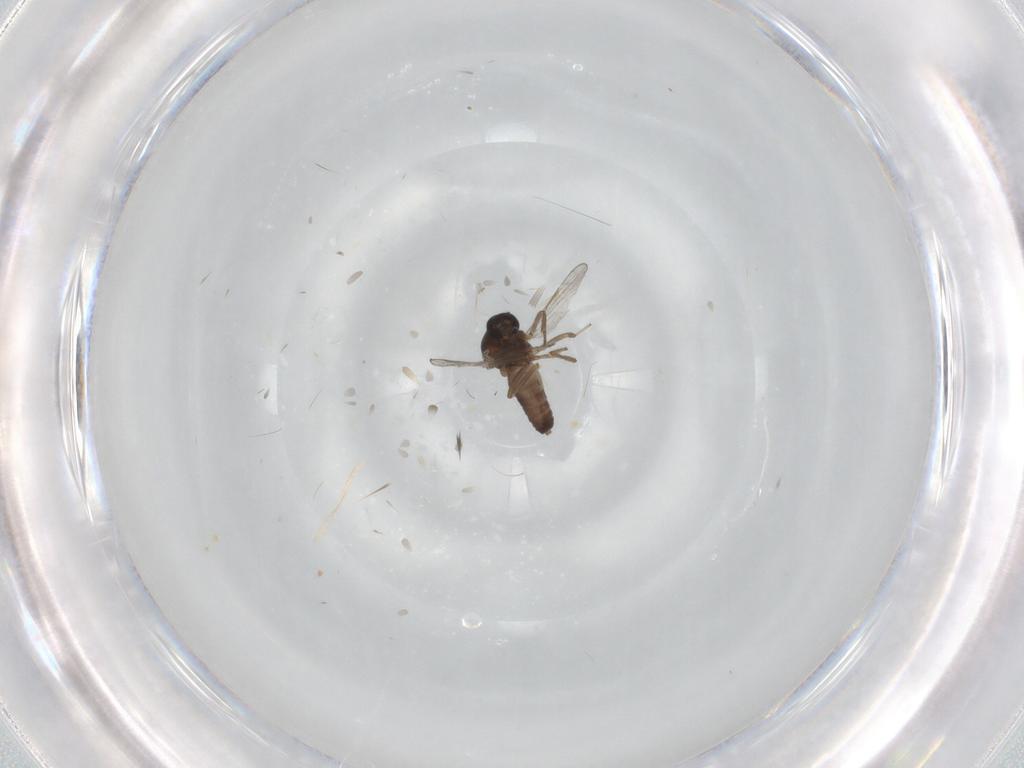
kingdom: Animalia
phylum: Arthropoda
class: Insecta
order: Diptera
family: Ceratopogonidae
